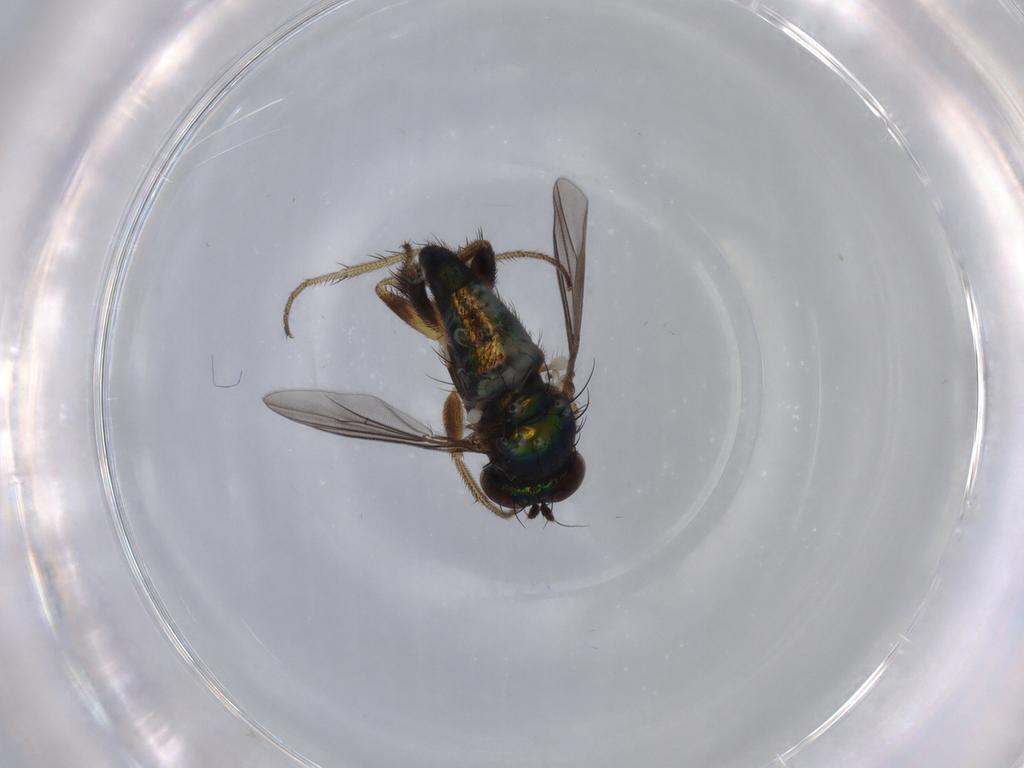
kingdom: Animalia
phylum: Arthropoda
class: Insecta
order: Diptera
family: Dolichopodidae
